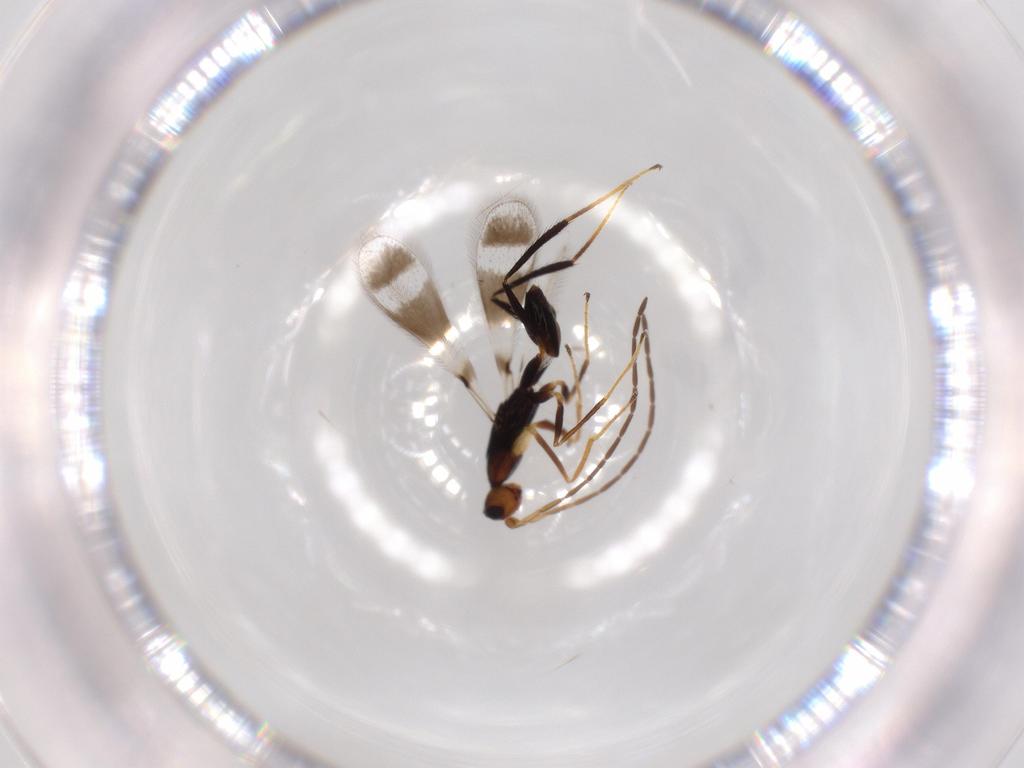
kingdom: Animalia
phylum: Arthropoda
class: Insecta
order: Hymenoptera
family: Mymaridae
